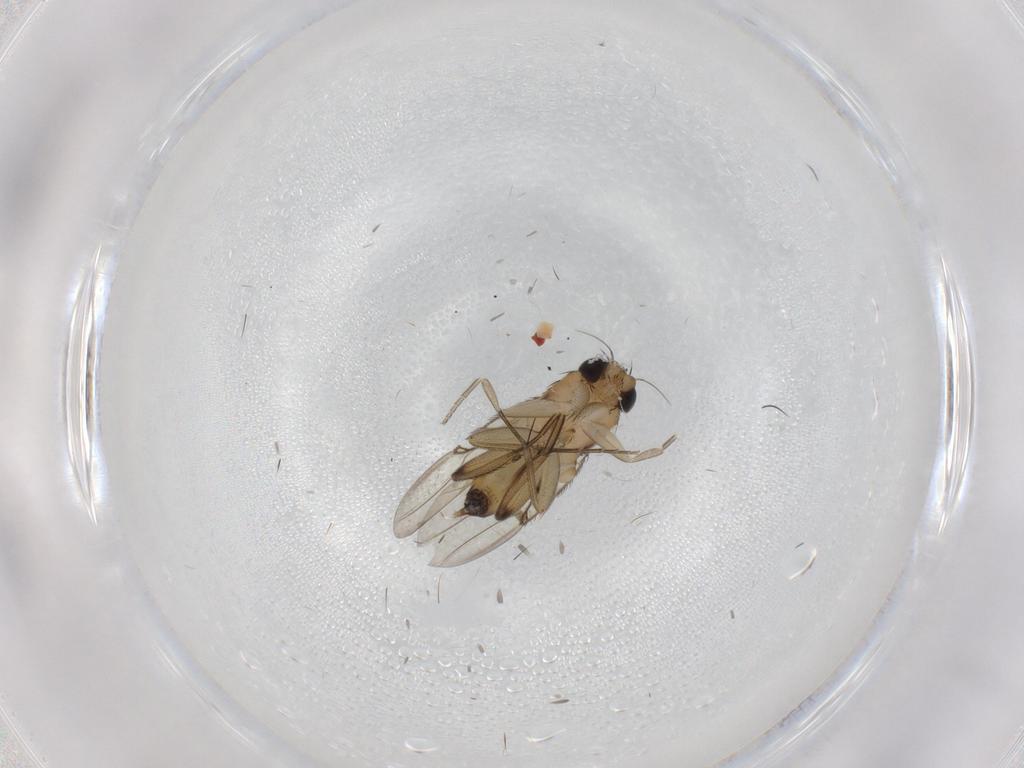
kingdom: Animalia
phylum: Arthropoda
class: Insecta
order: Diptera
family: Phoridae
